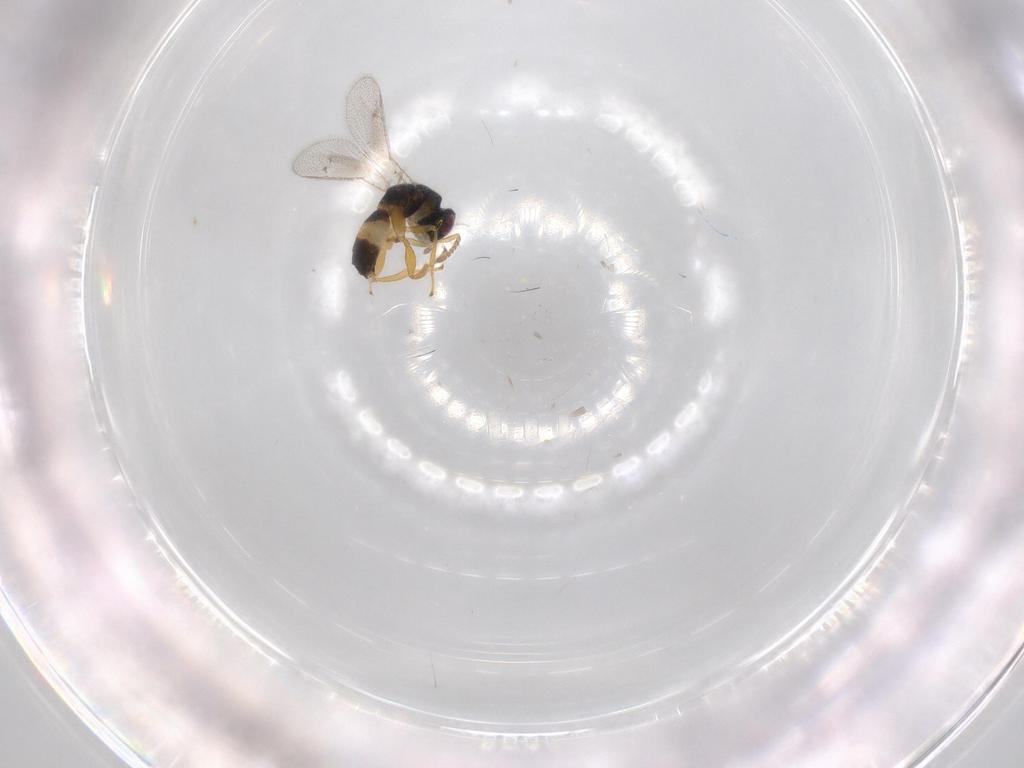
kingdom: Animalia
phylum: Arthropoda
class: Insecta
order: Hymenoptera
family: Torymidae
